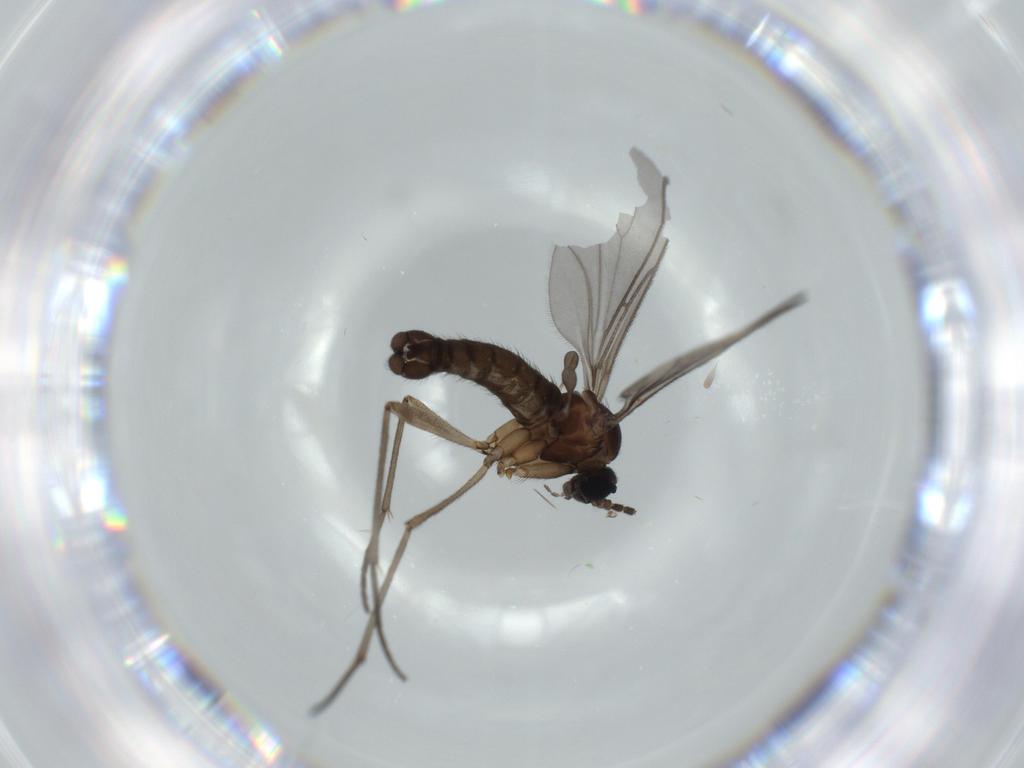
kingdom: Animalia
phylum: Arthropoda
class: Insecta
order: Diptera
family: Sciaridae
